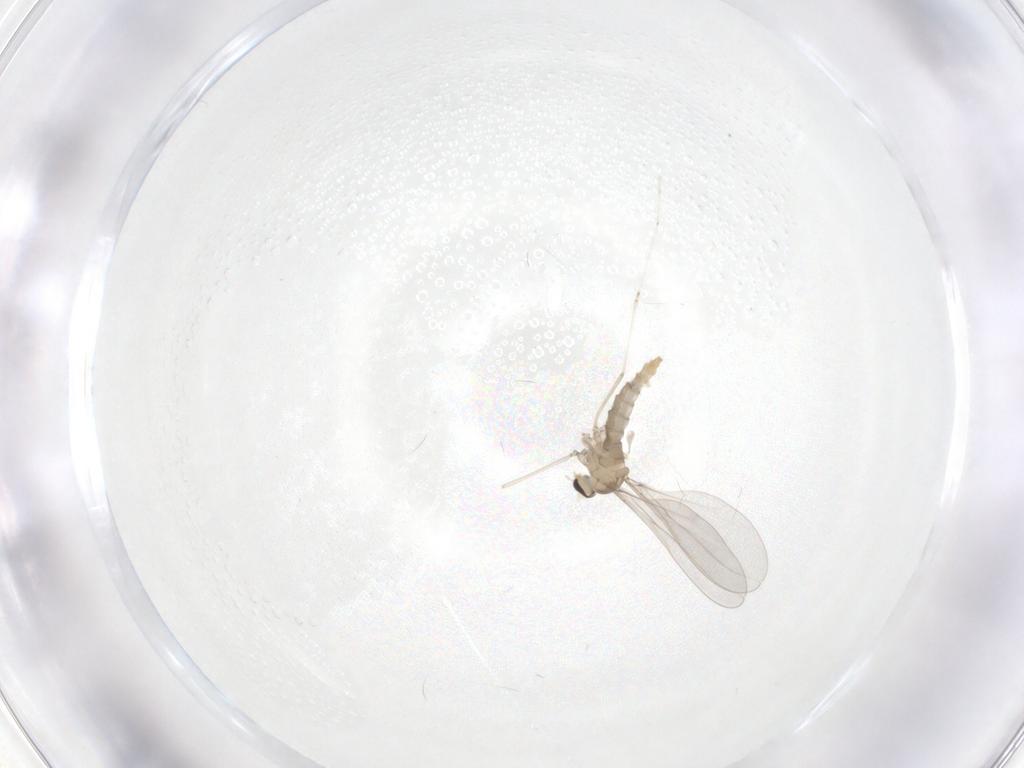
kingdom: Animalia
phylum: Arthropoda
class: Insecta
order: Diptera
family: Cecidomyiidae
